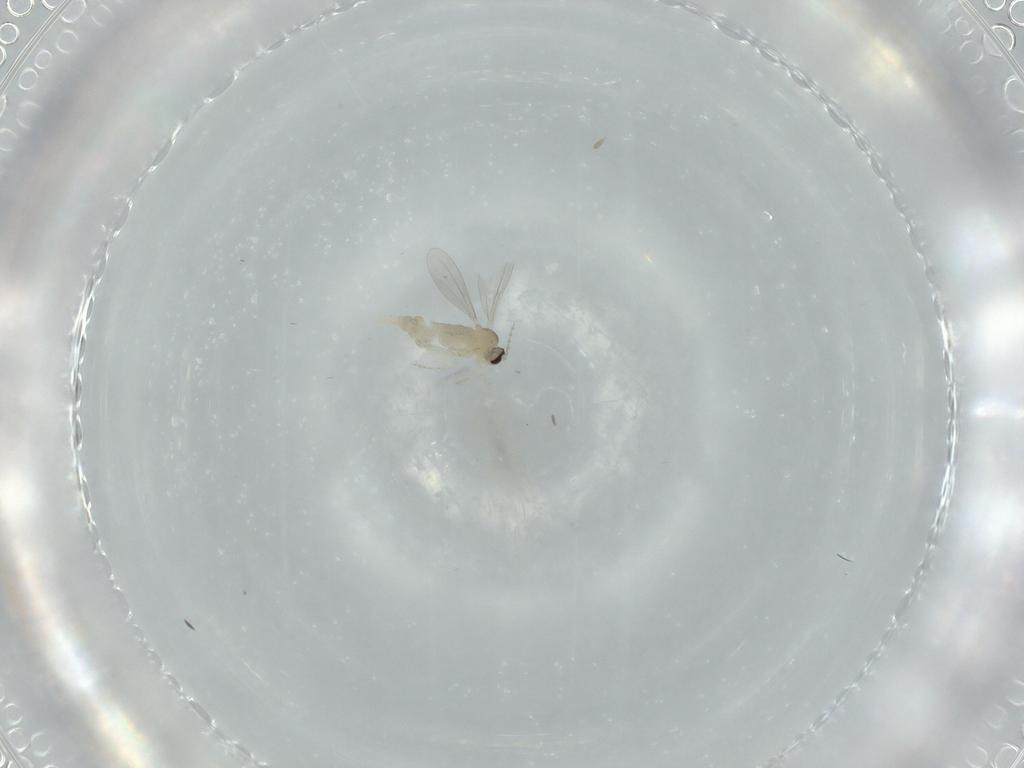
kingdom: Animalia
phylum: Arthropoda
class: Insecta
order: Diptera
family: Cecidomyiidae
